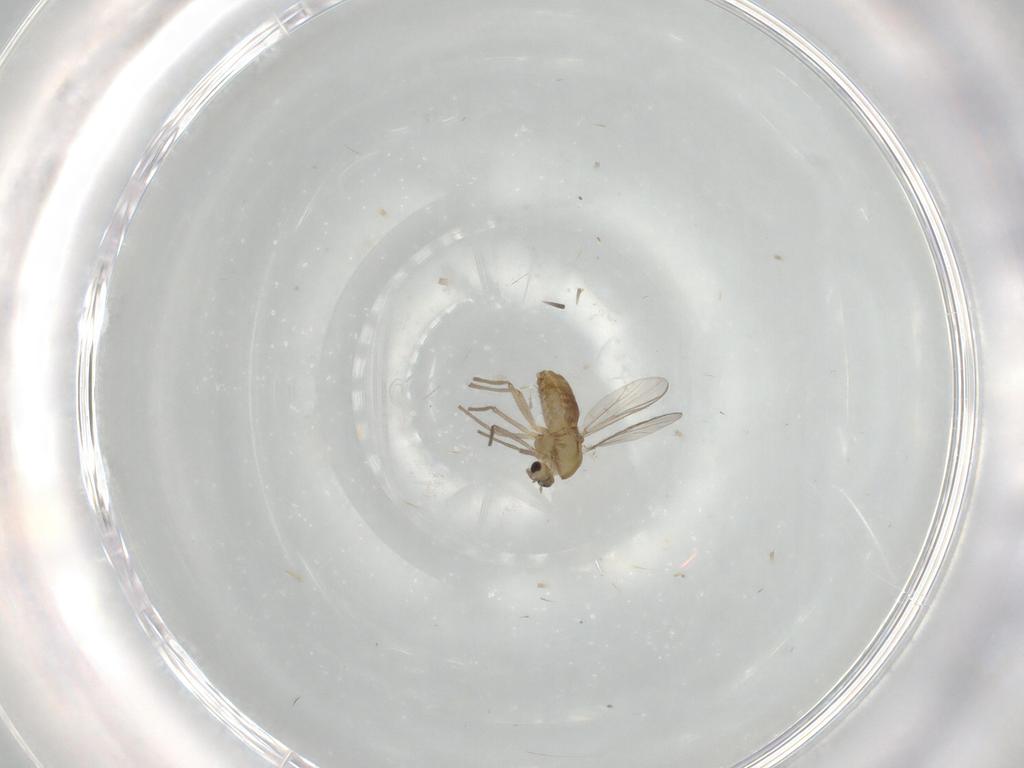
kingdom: Animalia
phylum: Arthropoda
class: Insecta
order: Diptera
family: Chironomidae
